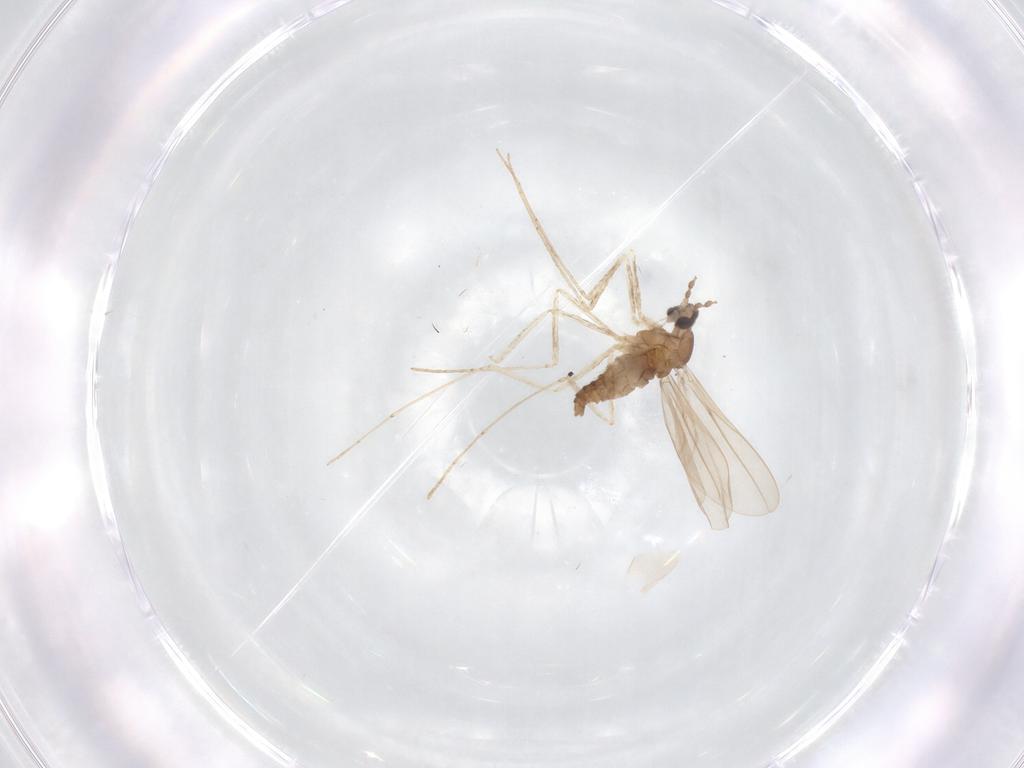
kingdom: Animalia
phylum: Arthropoda
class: Insecta
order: Diptera
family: Cecidomyiidae
